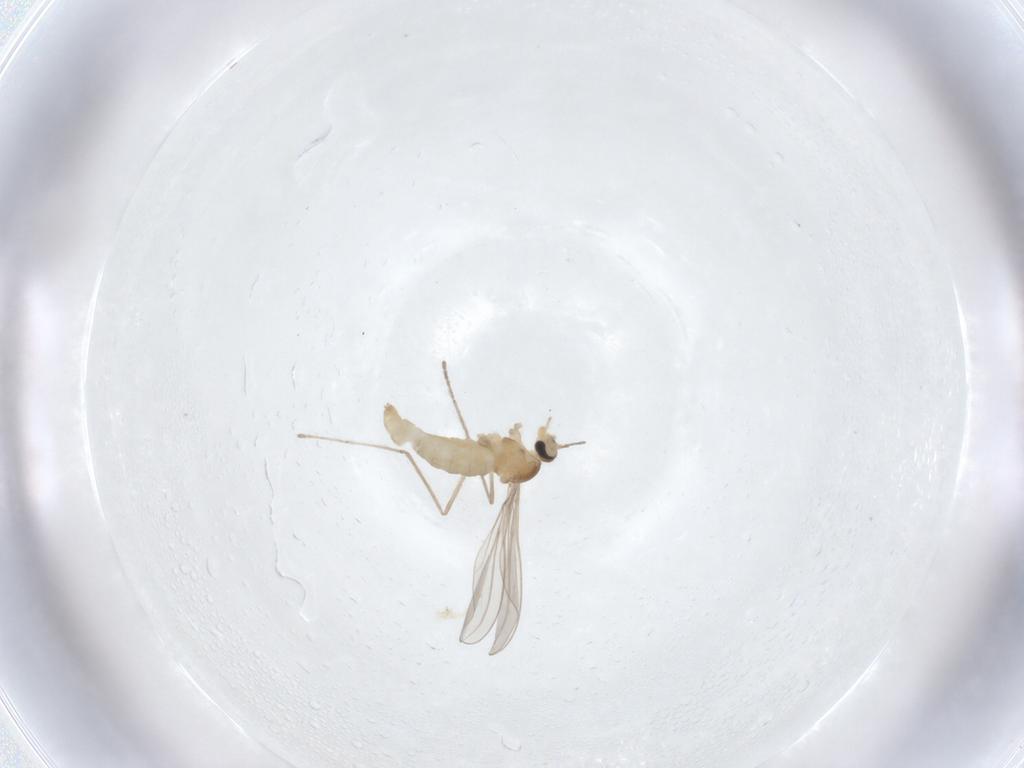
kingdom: Animalia
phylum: Arthropoda
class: Insecta
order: Diptera
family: Cecidomyiidae
